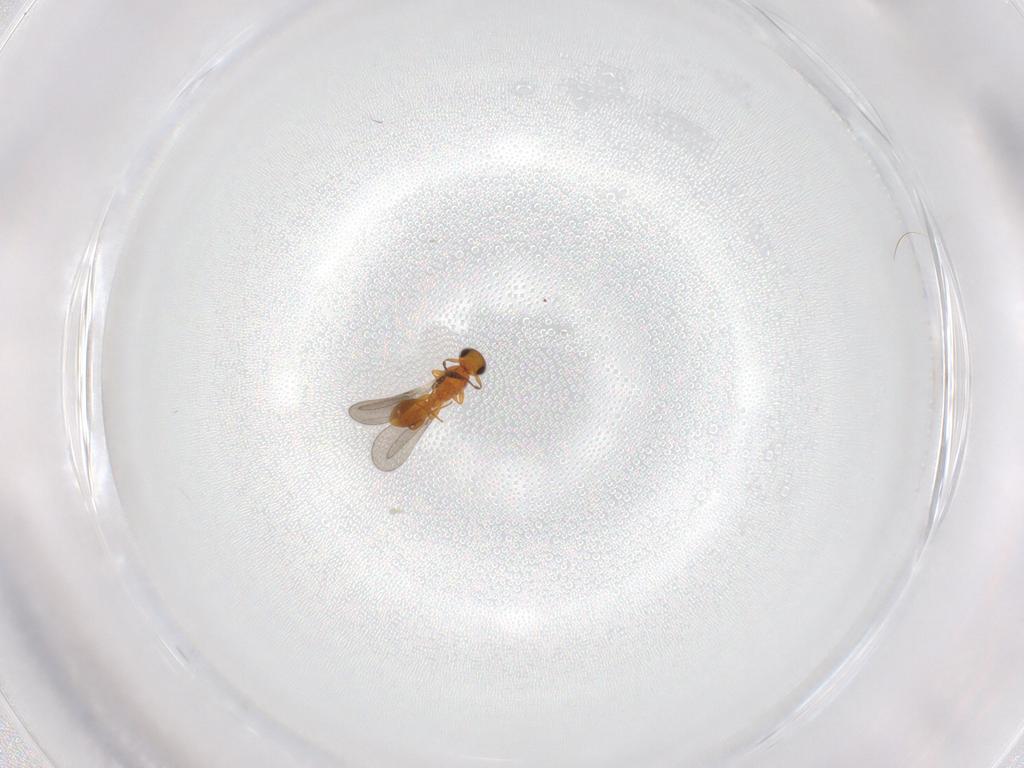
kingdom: Animalia
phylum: Arthropoda
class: Insecta
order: Hymenoptera
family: Platygastridae
